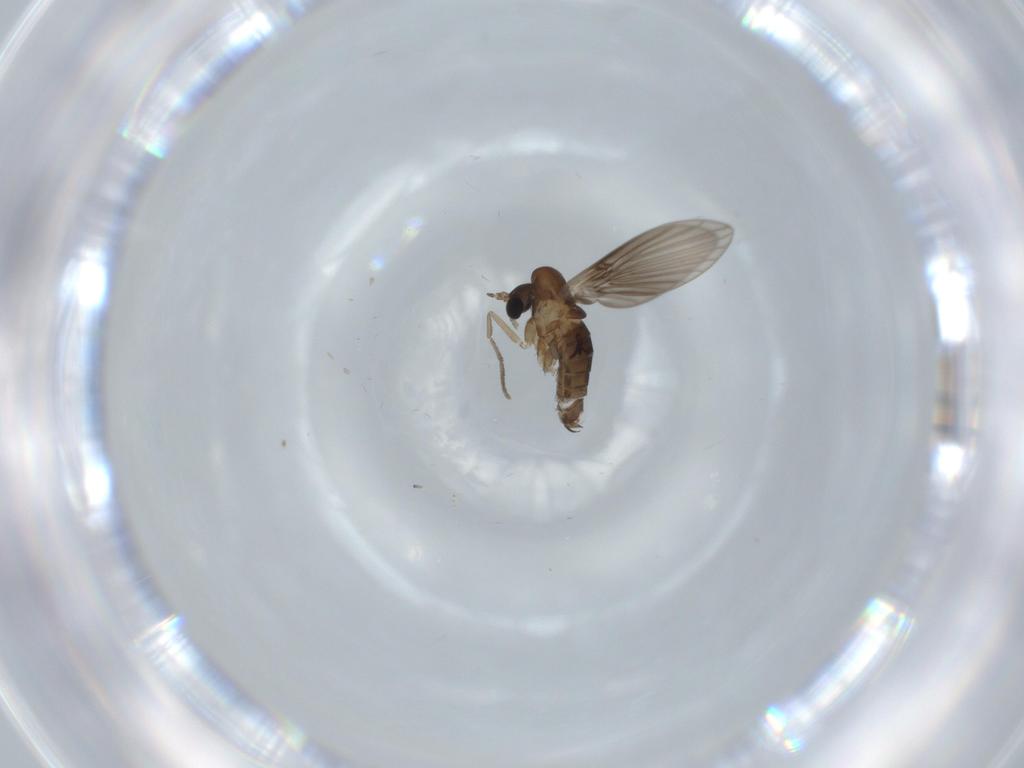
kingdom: Animalia
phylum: Arthropoda
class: Insecta
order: Diptera
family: Psychodidae
